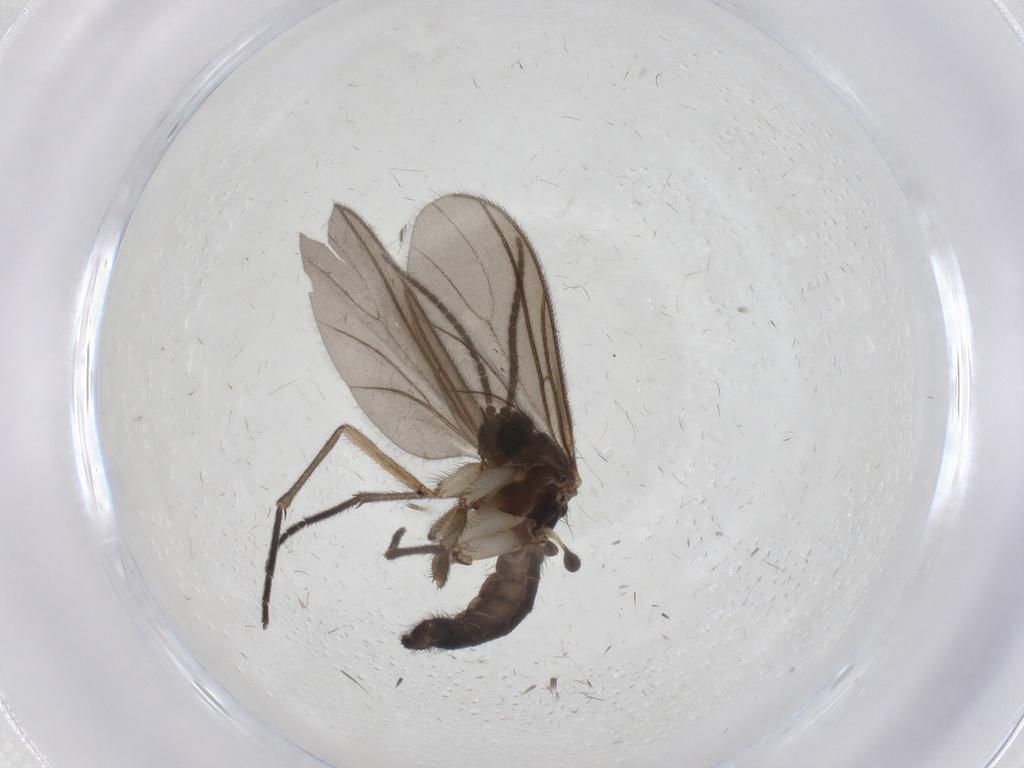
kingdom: Animalia
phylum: Arthropoda
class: Insecta
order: Diptera
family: Sciaridae
